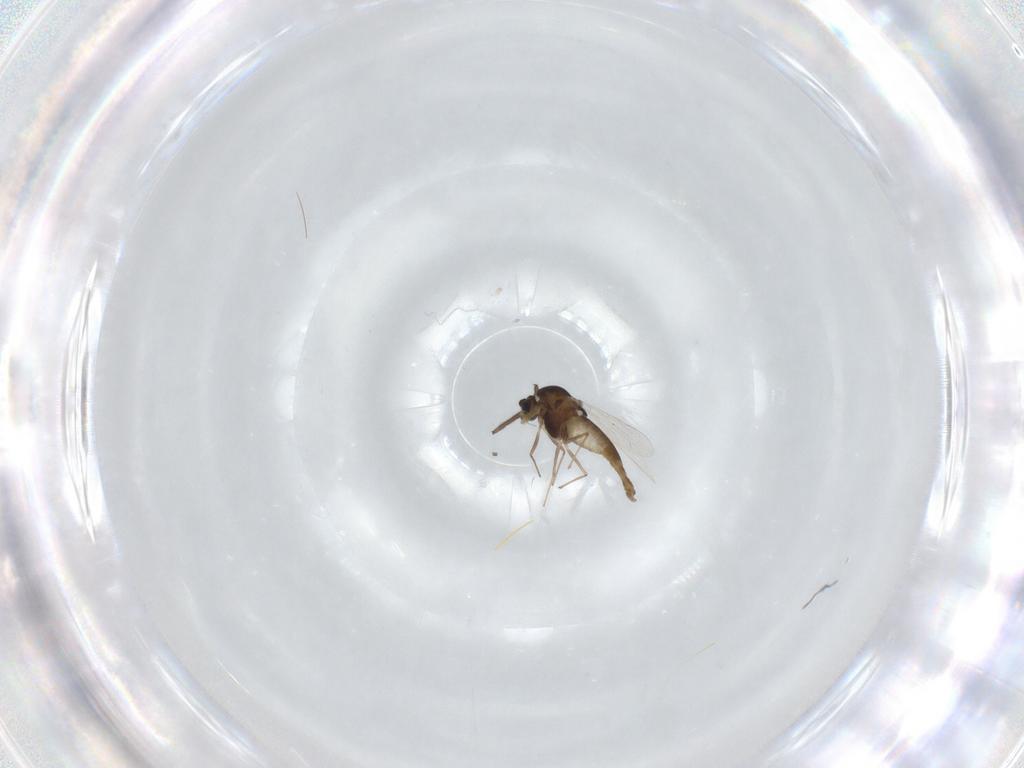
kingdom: Animalia
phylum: Arthropoda
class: Insecta
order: Diptera
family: Chironomidae
